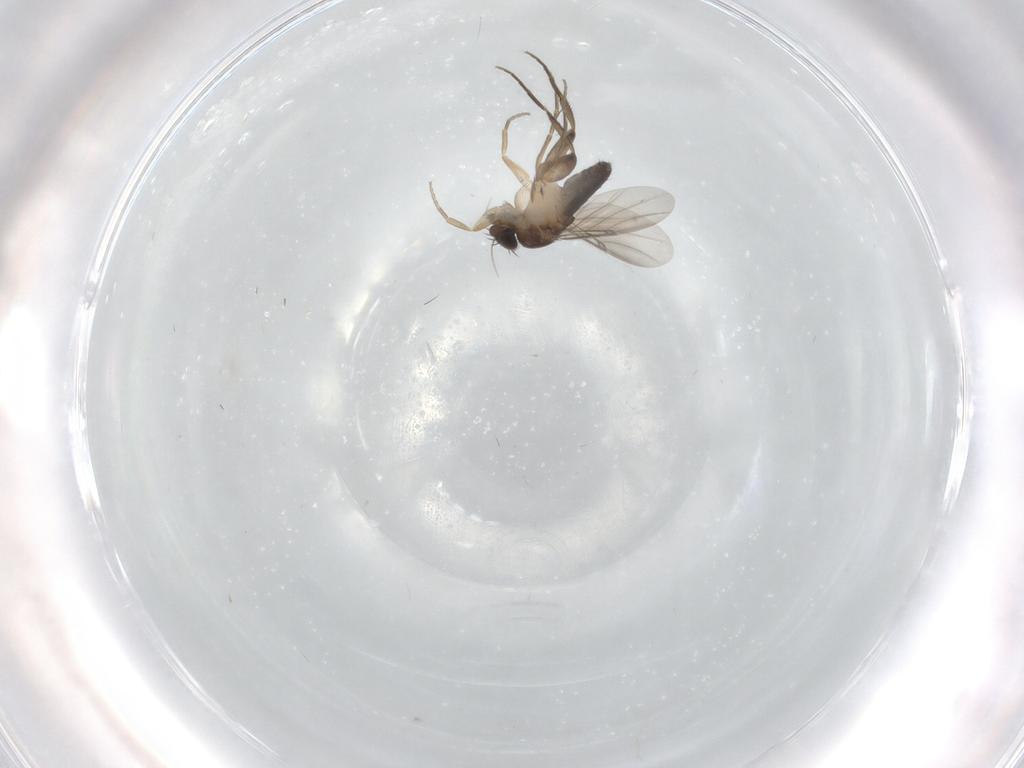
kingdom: Animalia
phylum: Arthropoda
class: Insecta
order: Diptera
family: Phoridae
